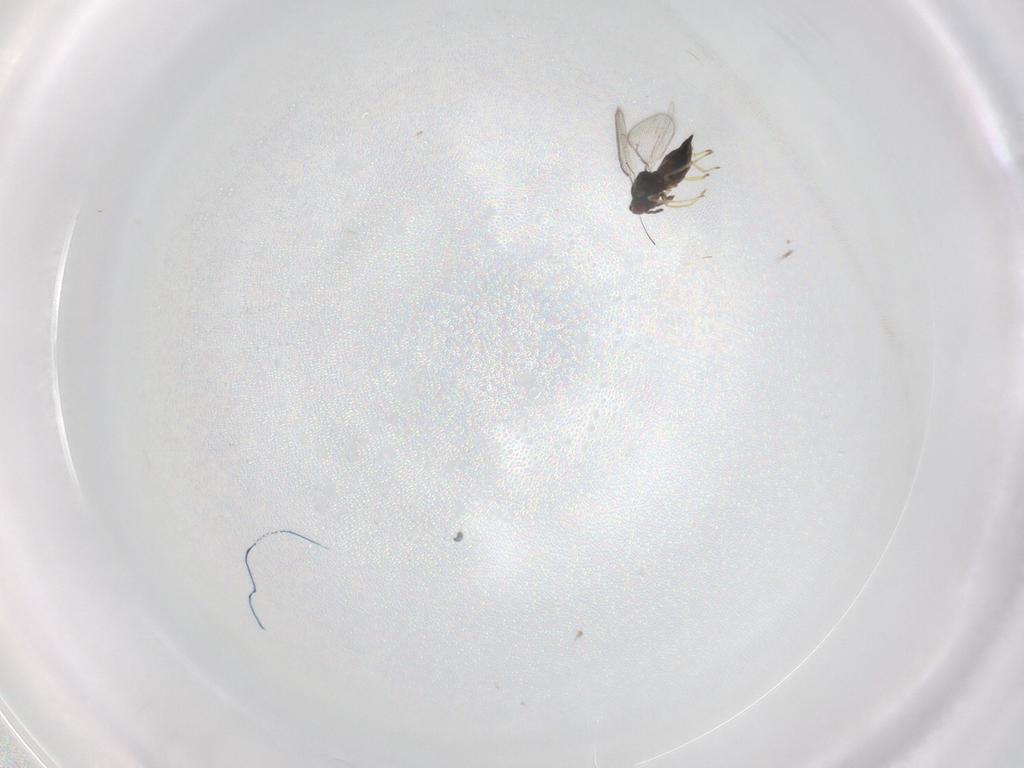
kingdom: Animalia
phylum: Arthropoda
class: Insecta
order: Hymenoptera
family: Eulophidae
